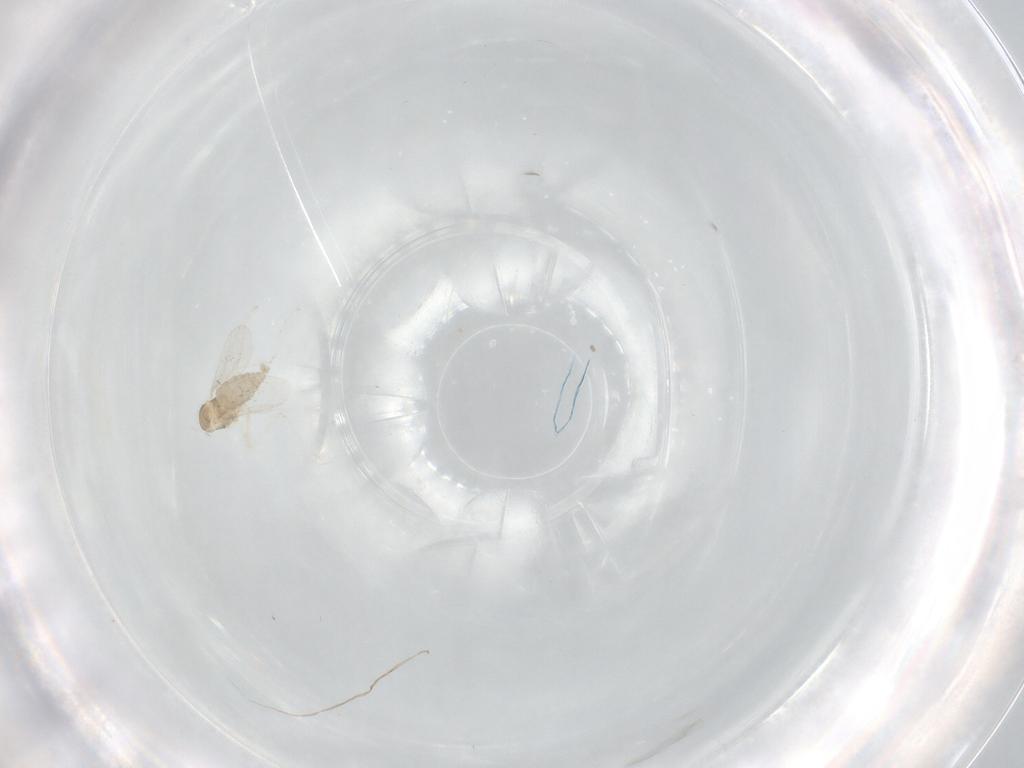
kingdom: Animalia
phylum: Arthropoda
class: Insecta
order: Diptera
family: Cecidomyiidae
